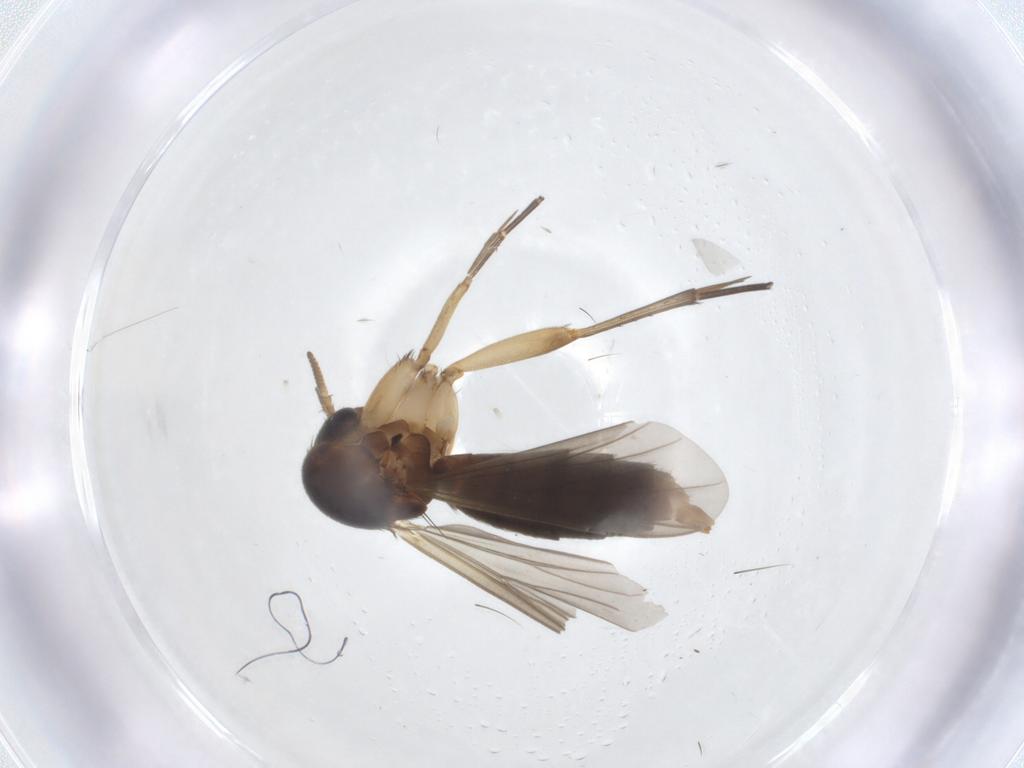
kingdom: Animalia
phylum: Arthropoda
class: Insecta
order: Diptera
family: Mycetophilidae
